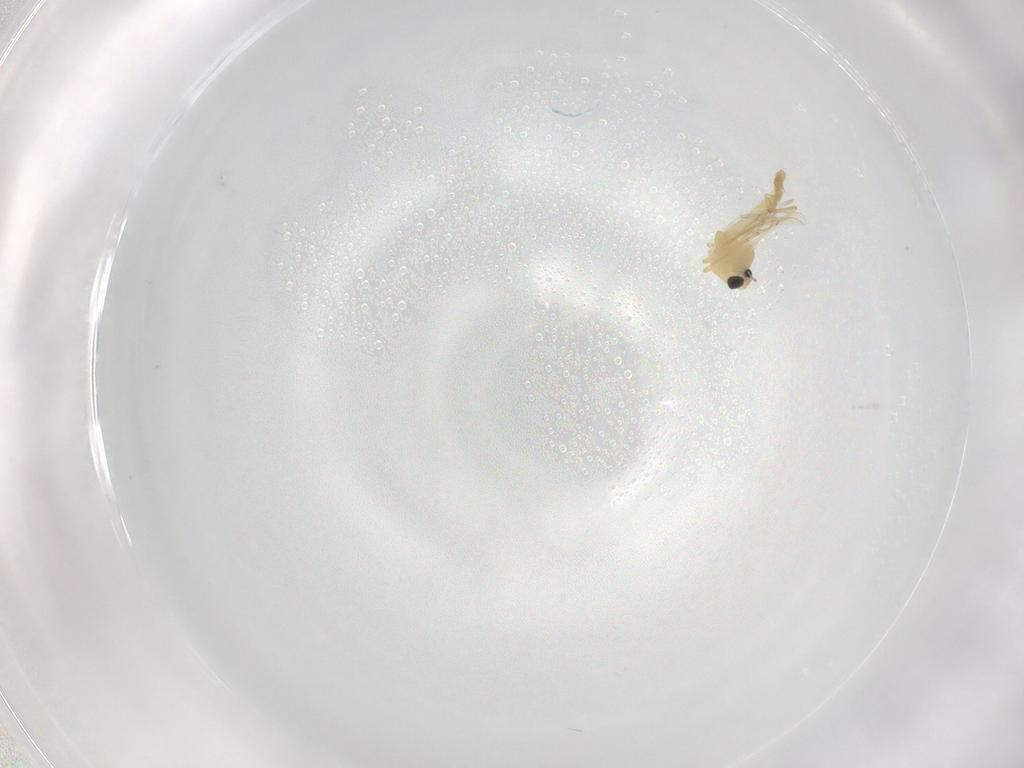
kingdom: Animalia
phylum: Arthropoda
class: Insecta
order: Diptera
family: Chironomidae
